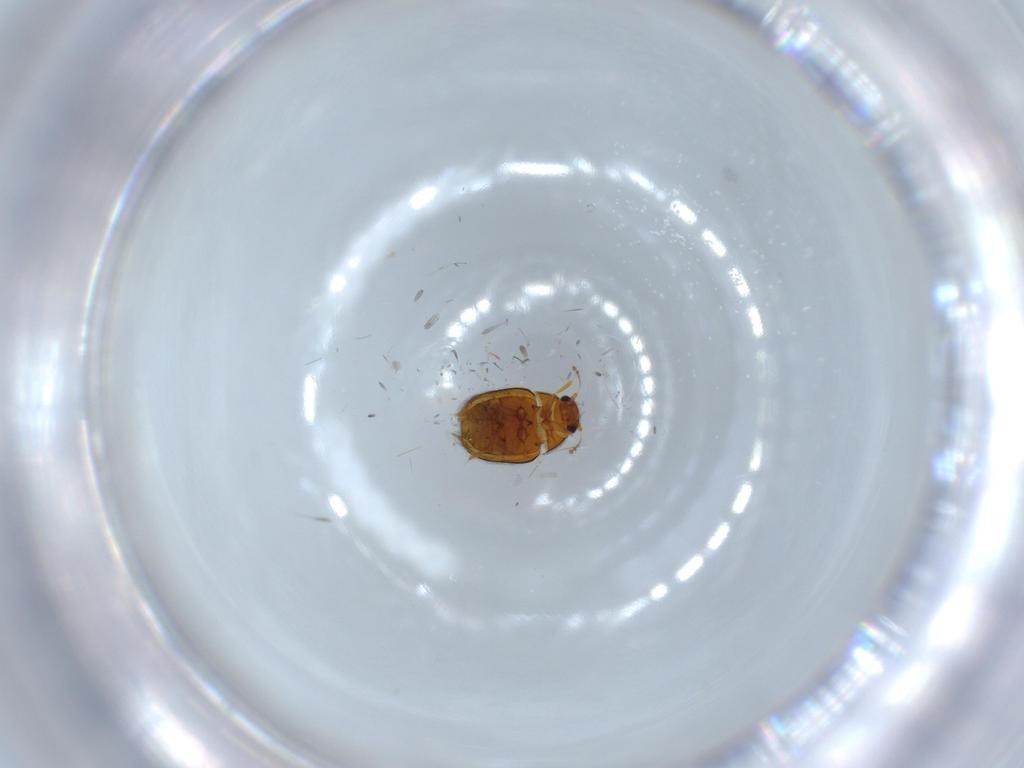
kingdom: Animalia
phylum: Arthropoda
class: Insecta
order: Coleoptera
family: Ptiliidae
